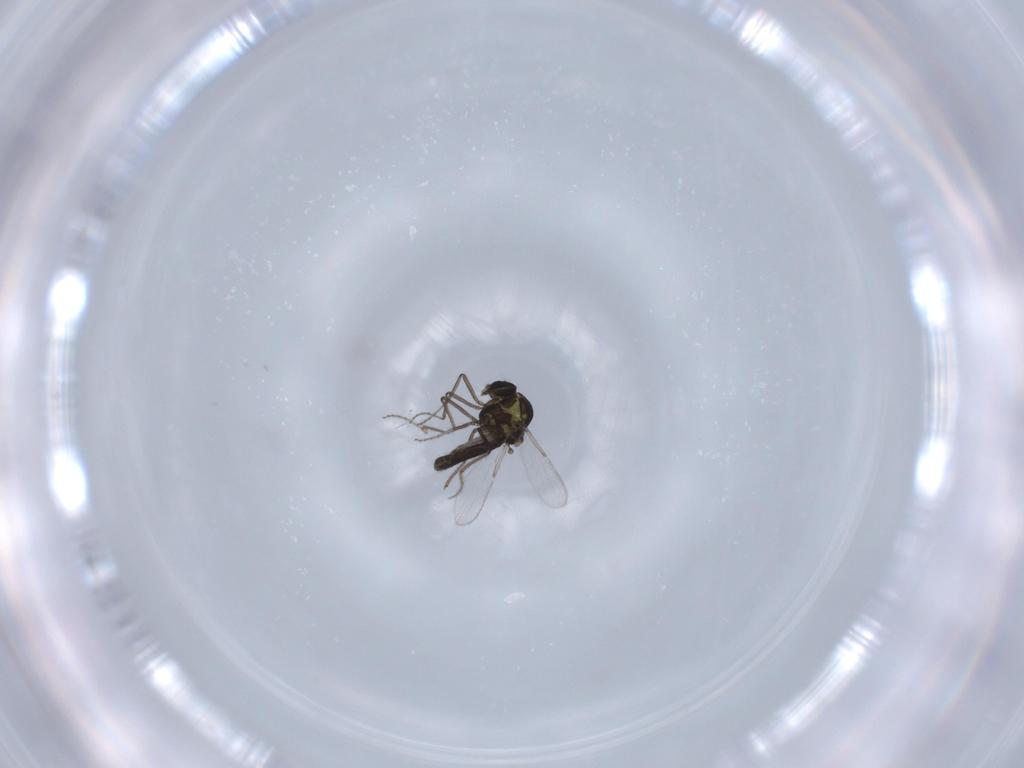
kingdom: Animalia
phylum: Arthropoda
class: Insecta
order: Diptera
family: Ceratopogonidae
